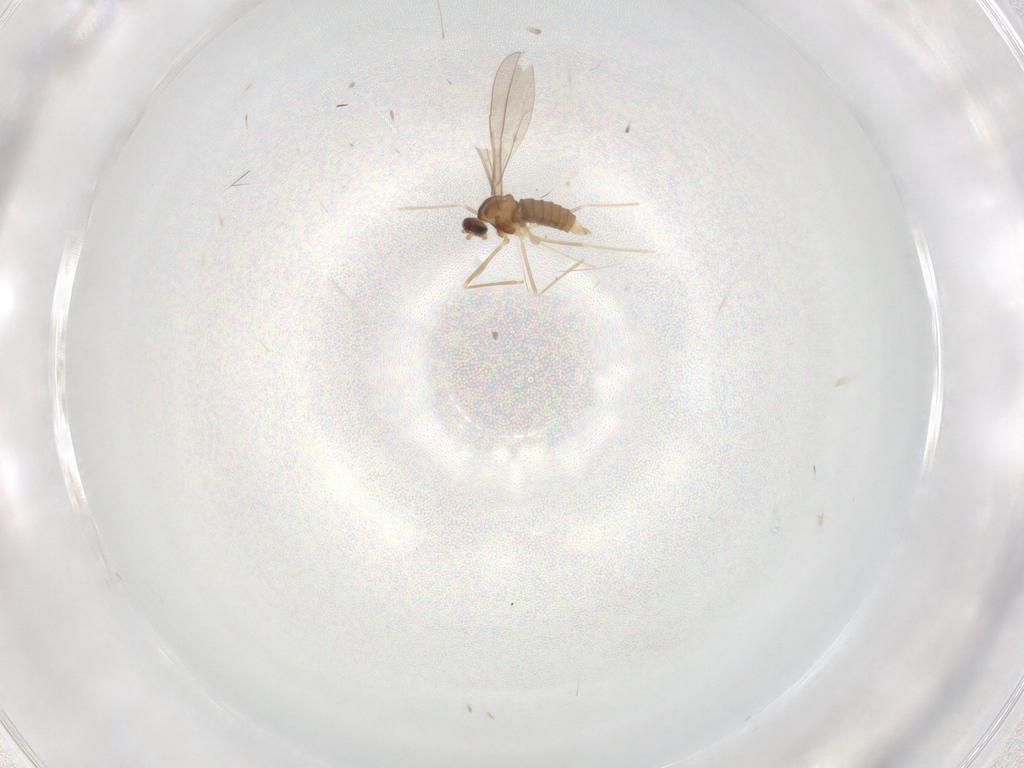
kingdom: Animalia
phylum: Arthropoda
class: Insecta
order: Diptera
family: Cecidomyiidae
